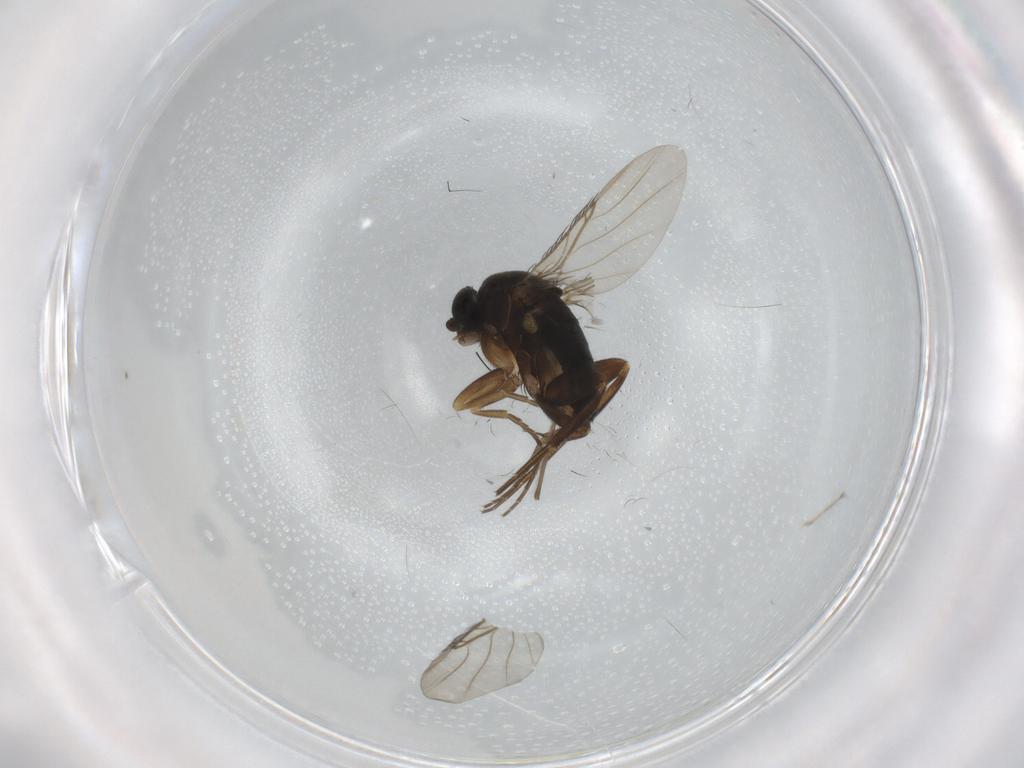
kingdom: Animalia
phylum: Arthropoda
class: Insecta
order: Diptera
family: Phoridae
